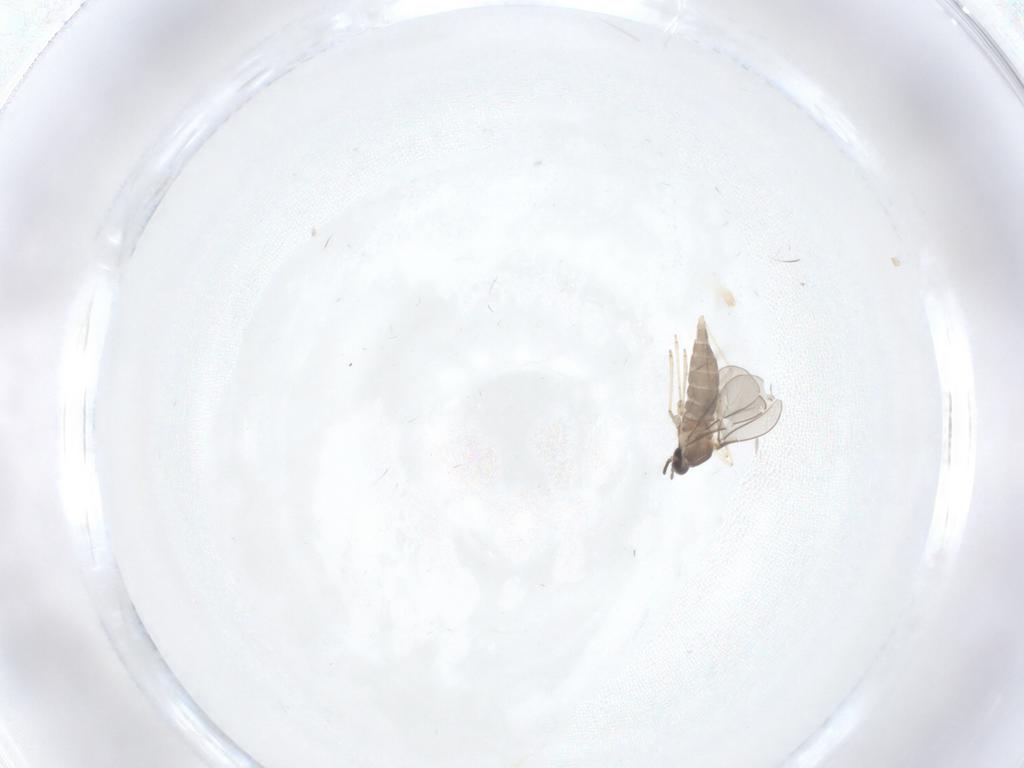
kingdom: Animalia
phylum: Arthropoda
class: Insecta
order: Diptera
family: Cecidomyiidae
